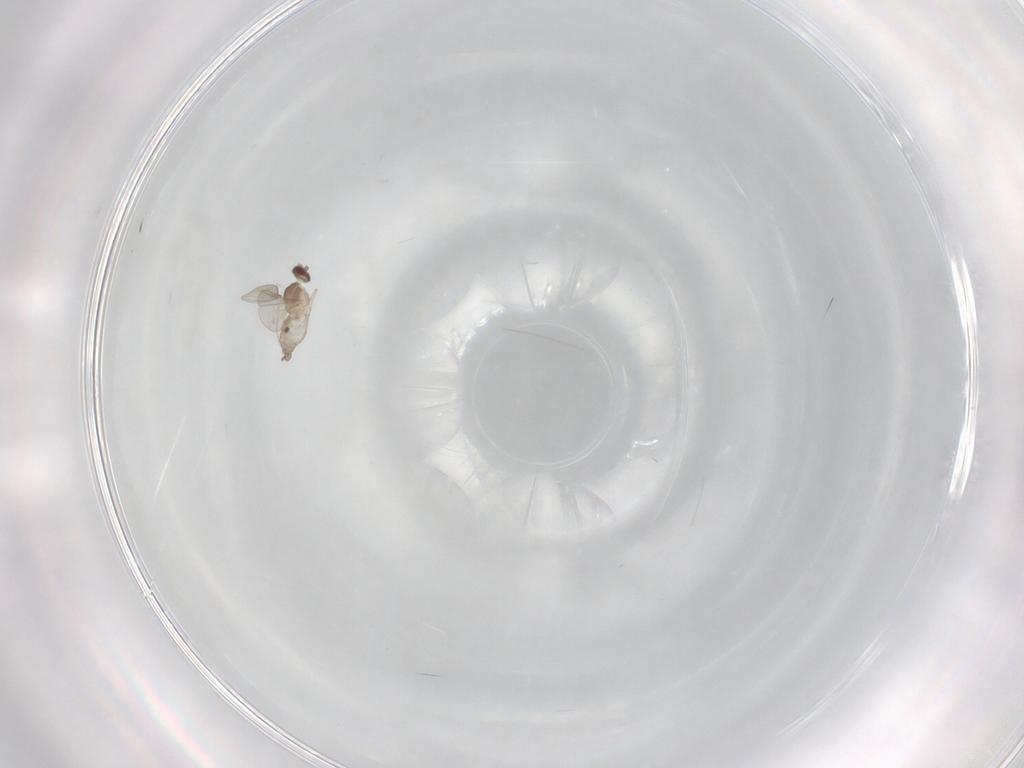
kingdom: Animalia
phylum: Arthropoda
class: Insecta
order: Diptera
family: Cecidomyiidae
